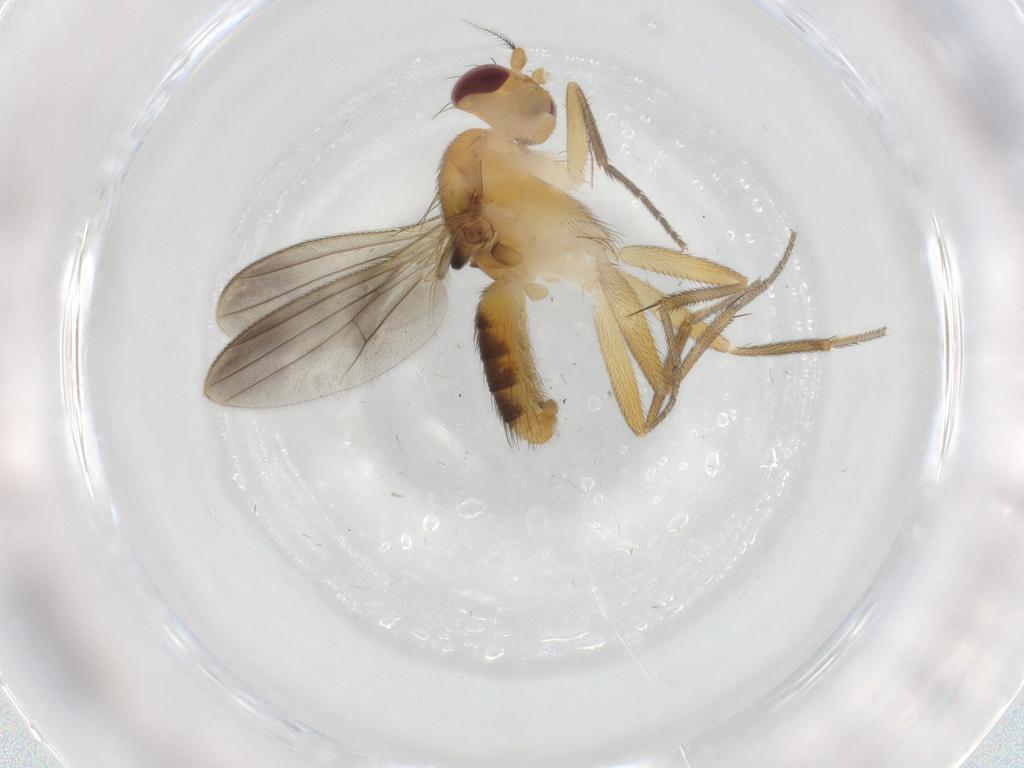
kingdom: Animalia
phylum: Arthropoda
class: Insecta
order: Diptera
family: Clusiidae
